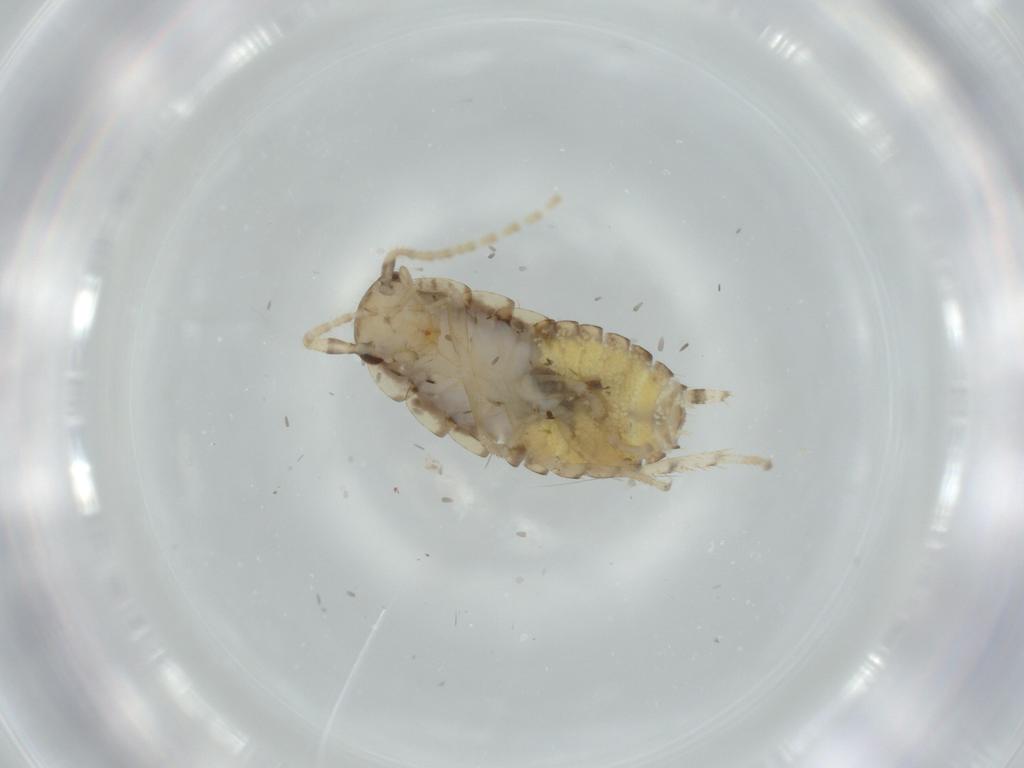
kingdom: Animalia
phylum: Arthropoda
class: Insecta
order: Blattodea
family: Ectobiidae
